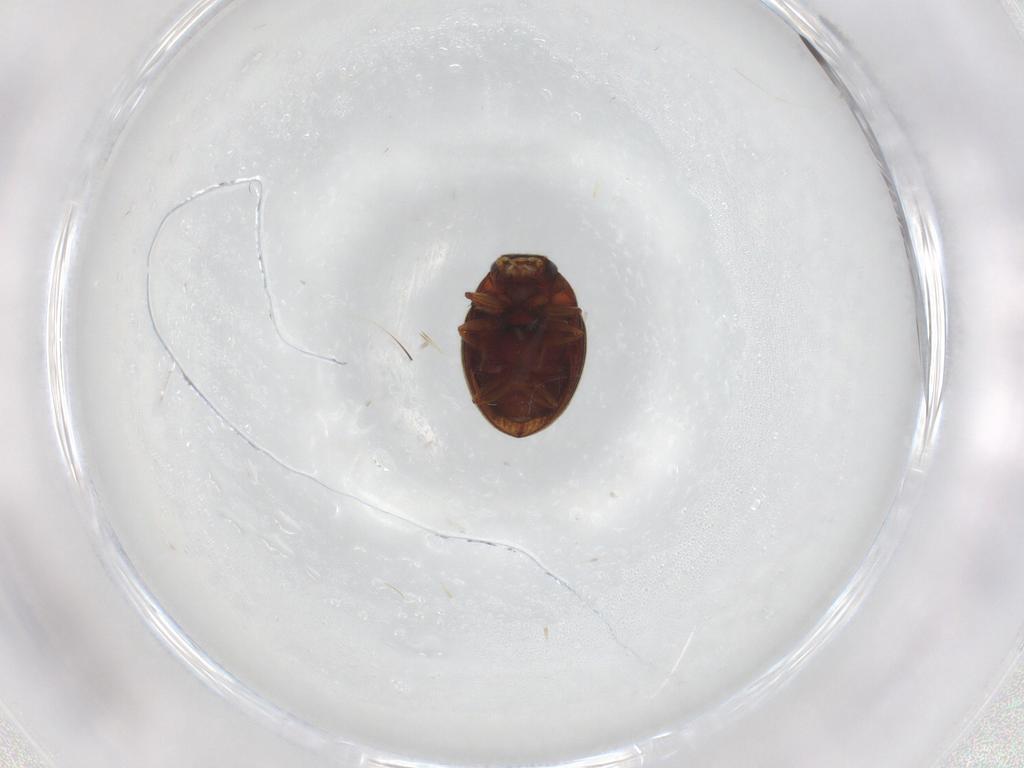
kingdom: Animalia
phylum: Arthropoda
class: Insecta
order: Coleoptera
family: Hydrophilidae
